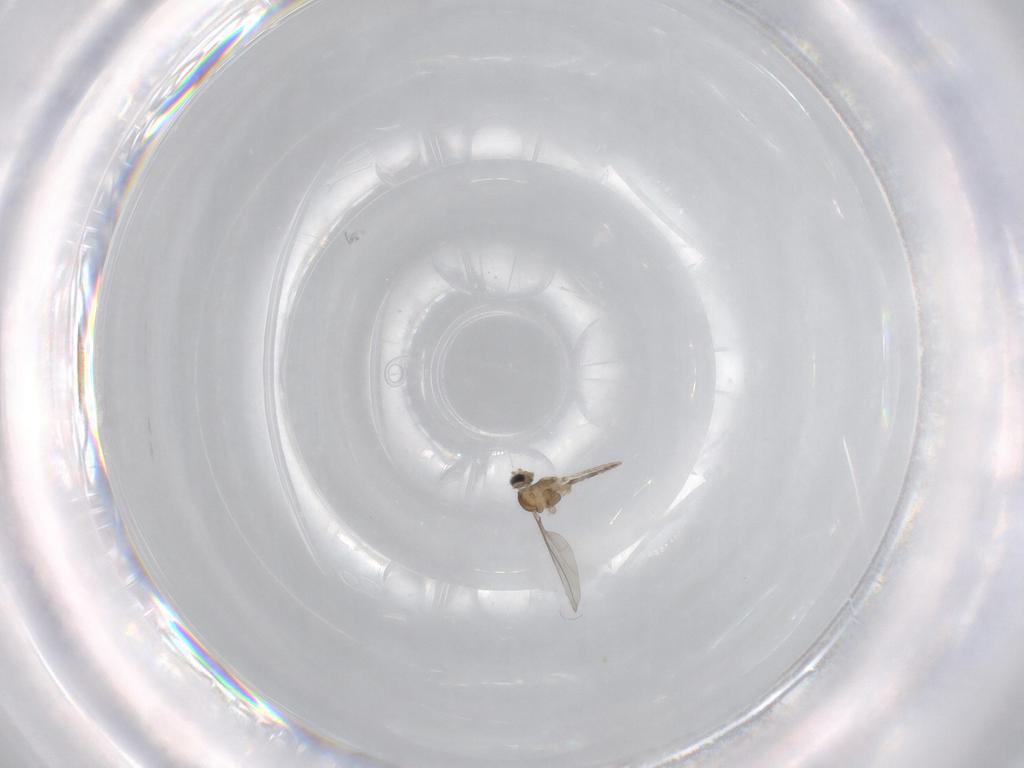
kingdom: Animalia
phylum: Arthropoda
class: Insecta
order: Diptera
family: Cecidomyiidae
